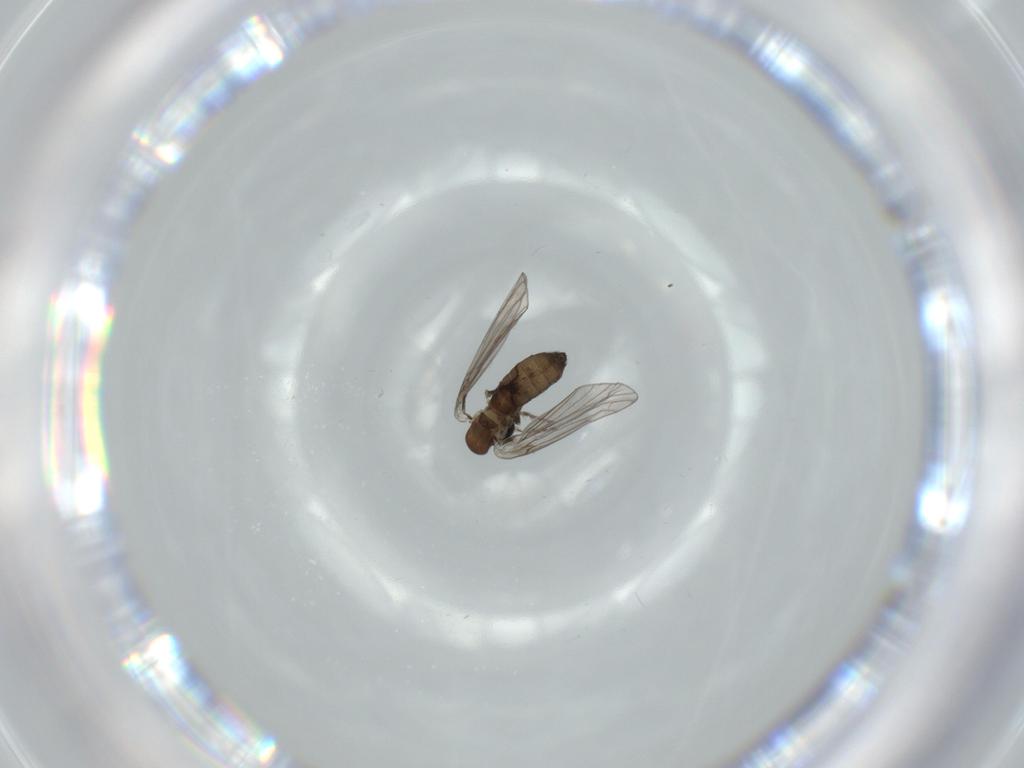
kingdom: Animalia
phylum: Arthropoda
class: Insecta
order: Diptera
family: Psychodidae
